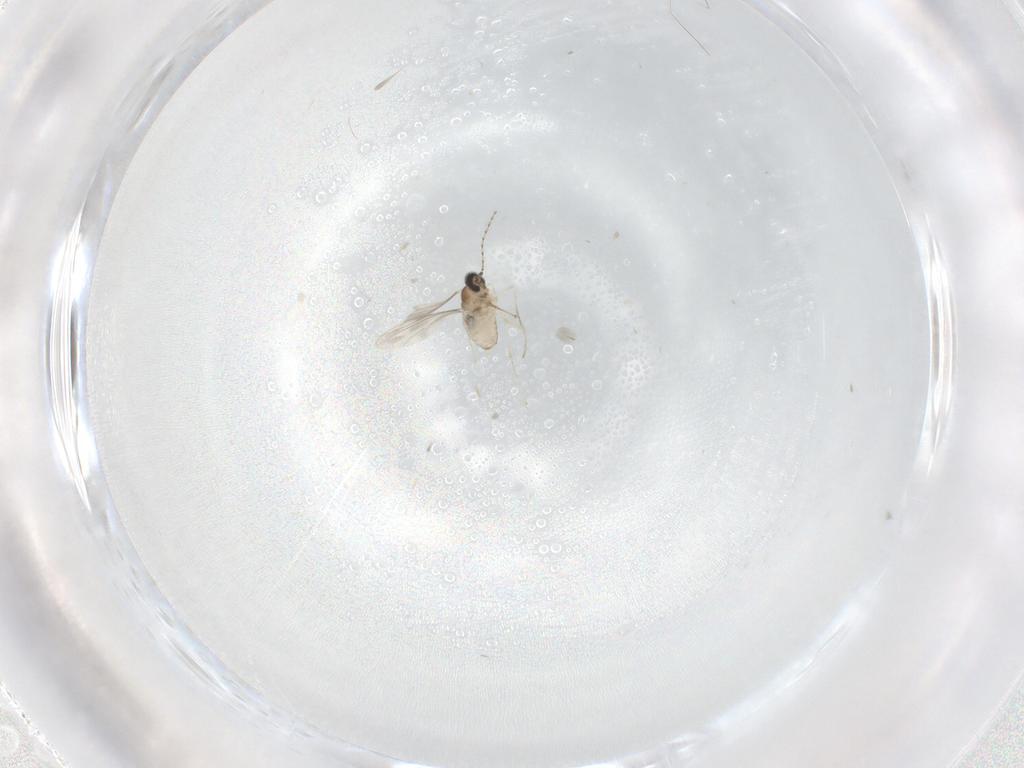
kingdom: Animalia
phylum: Arthropoda
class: Insecta
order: Diptera
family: Cecidomyiidae
